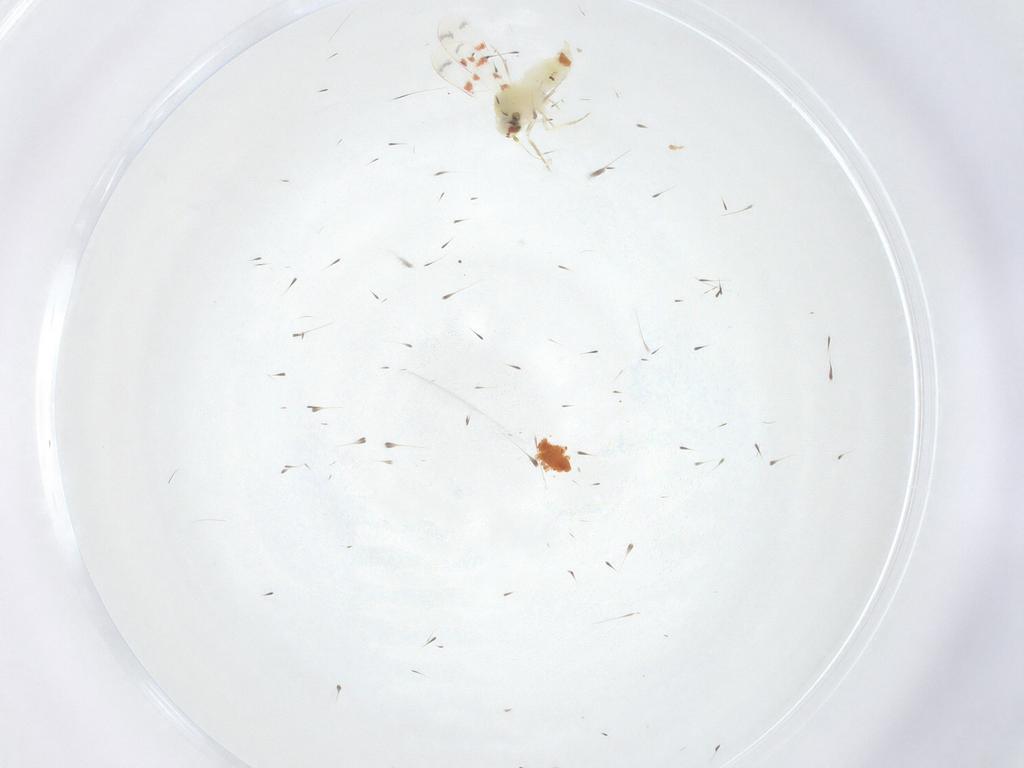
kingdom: Animalia
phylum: Arthropoda
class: Insecta
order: Hemiptera
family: Aleyrodidae
